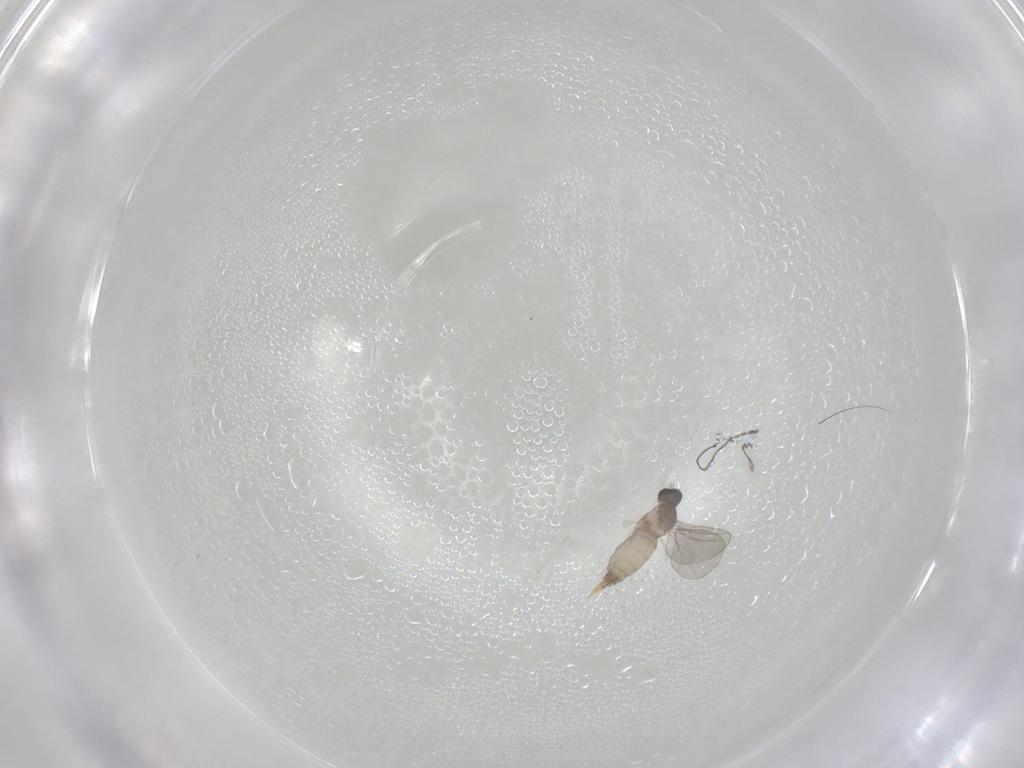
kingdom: Animalia
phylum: Arthropoda
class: Insecta
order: Diptera
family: Cecidomyiidae
